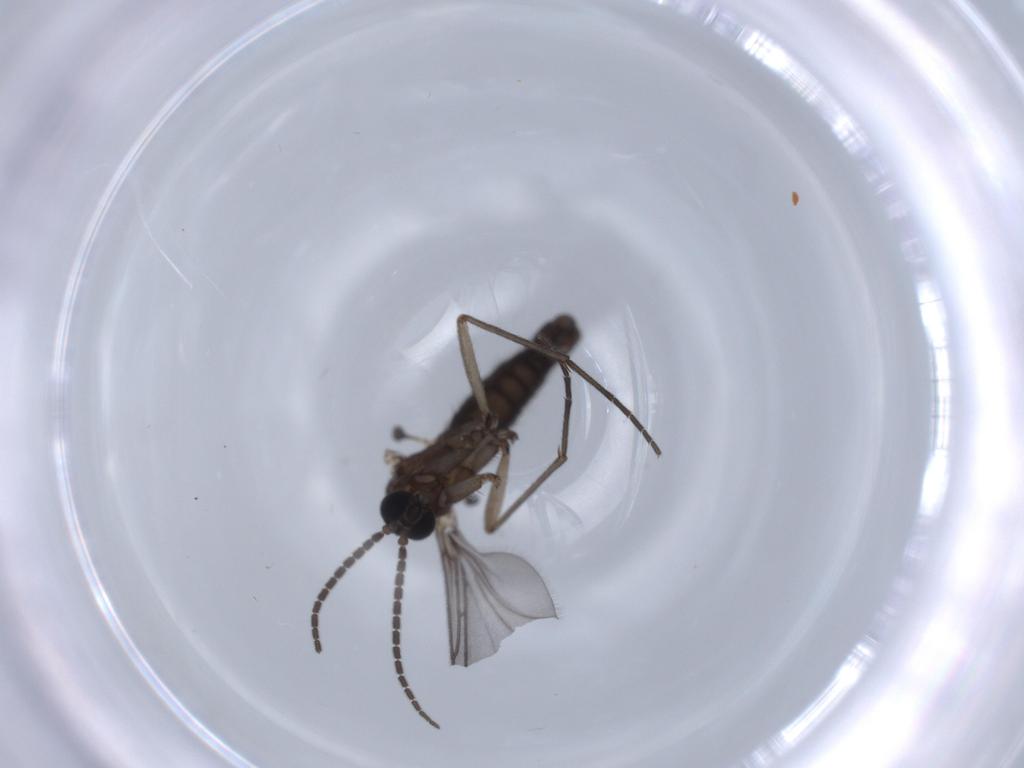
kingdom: Animalia
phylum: Arthropoda
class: Insecta
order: Diptera
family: Sciaridae
